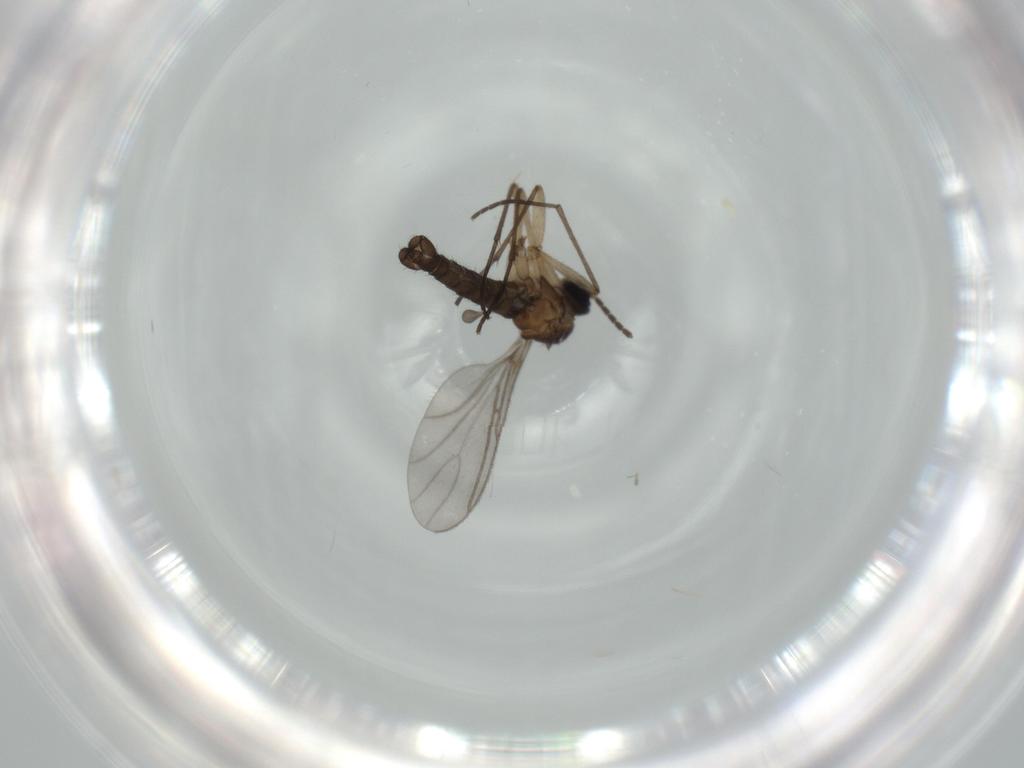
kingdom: Animalia
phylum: Arthropoda
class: Insecta
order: Diptera
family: Sciaridae
